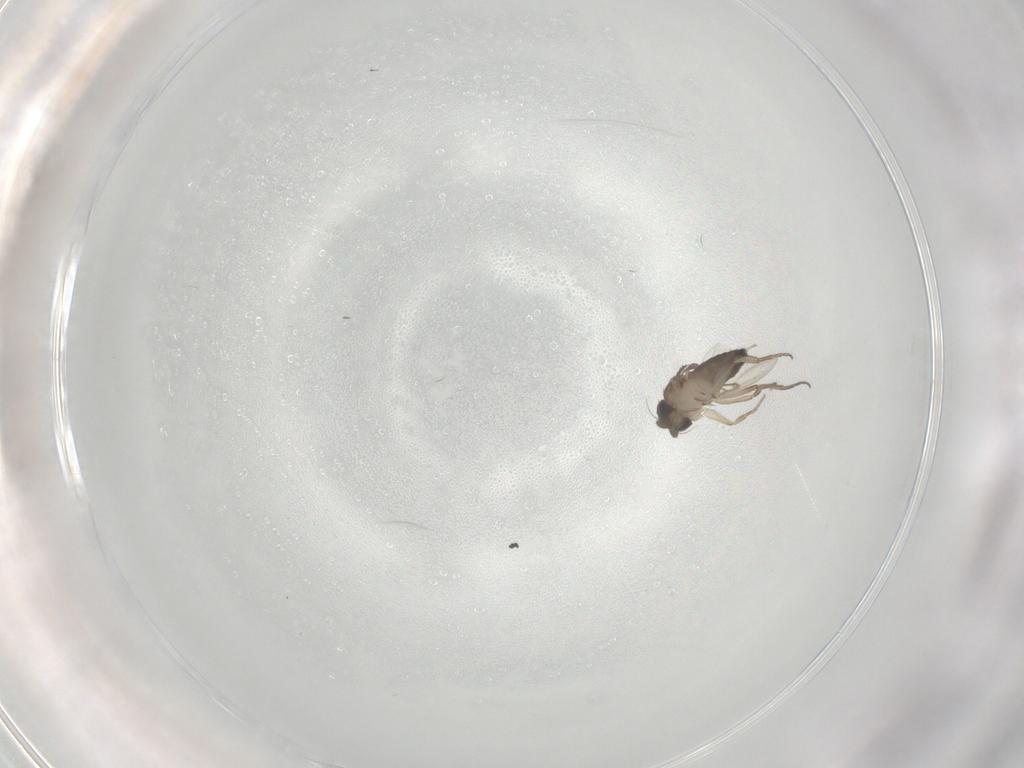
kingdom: Animalia
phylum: Arthropoda
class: Insecta
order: Diptera
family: Phoridae
